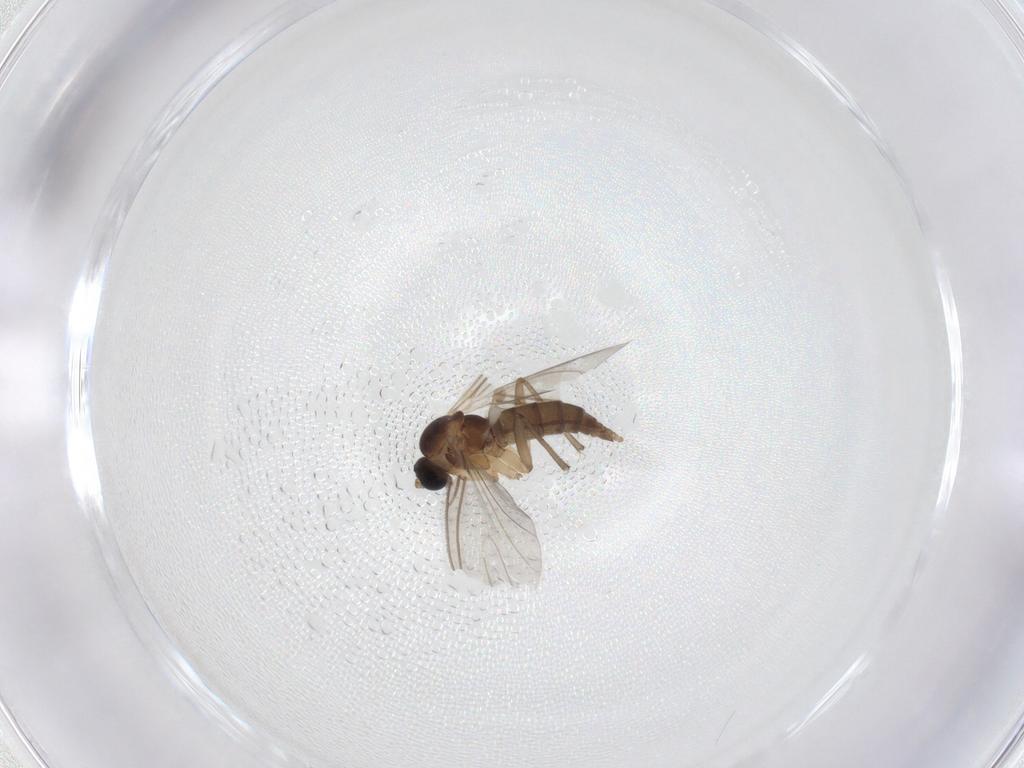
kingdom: Animalia
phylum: Arthropoda
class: Insecta
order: Diptera
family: Sciaridae
